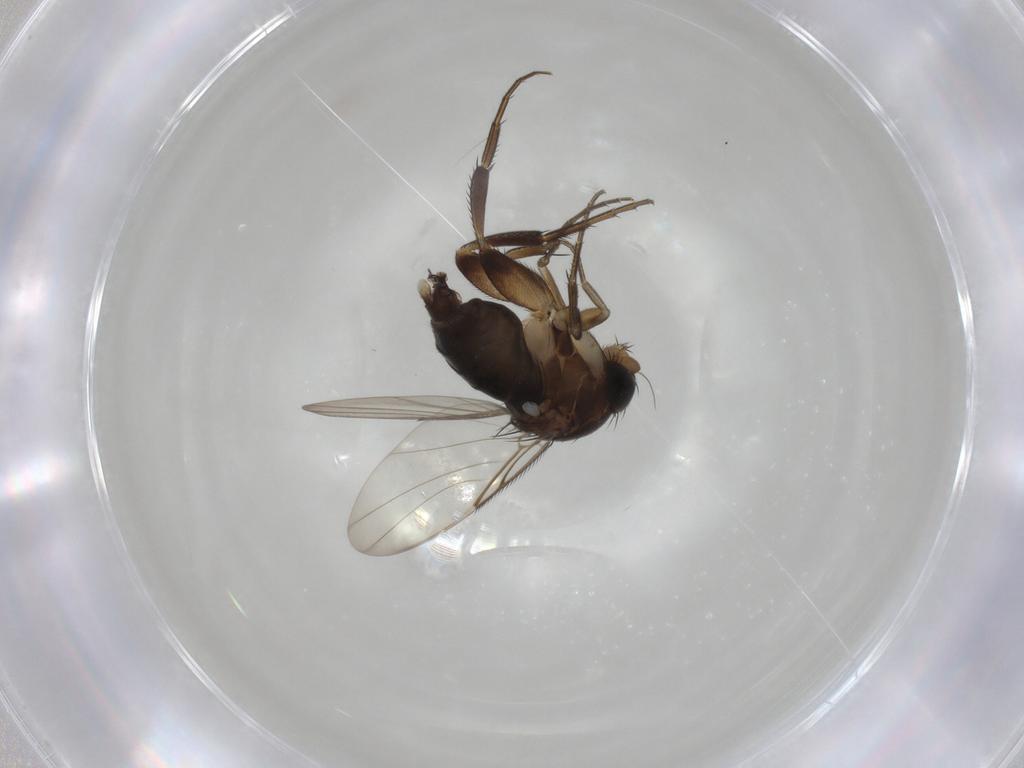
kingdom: Animalia
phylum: Arthropoda
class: Insecta
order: Diptera
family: Phoridae
